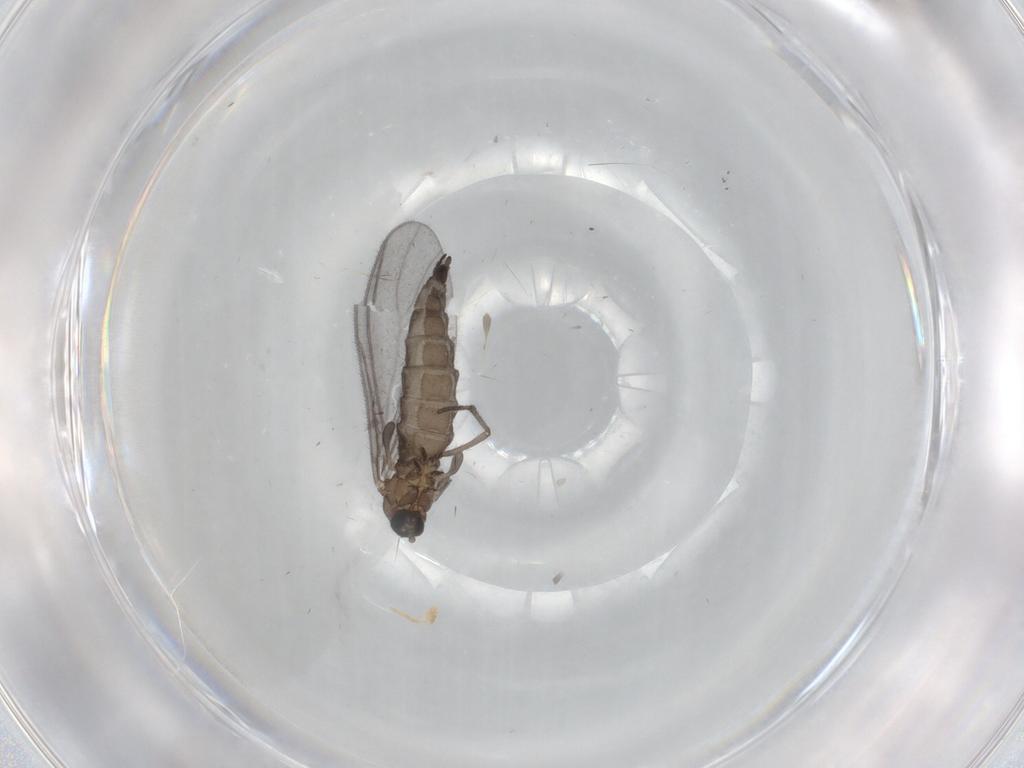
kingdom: Animalia
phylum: Arthropoda
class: Insecta
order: Diptera
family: Sciaridae
